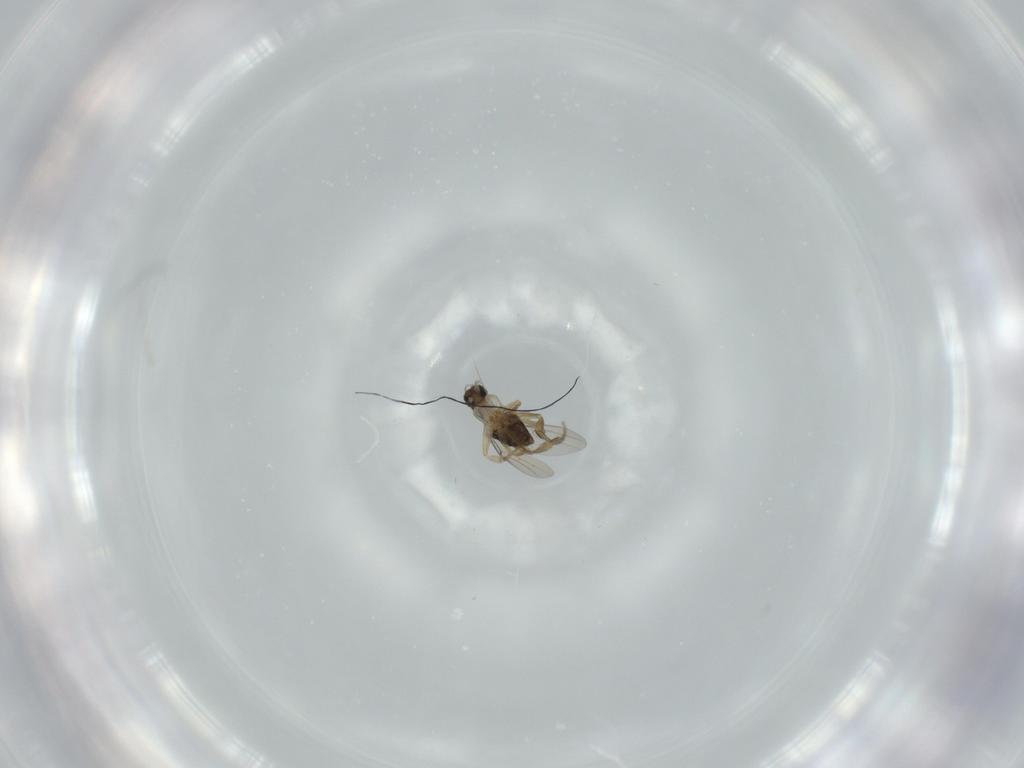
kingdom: Animalia
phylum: Arthropoda
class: Insecta
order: Diptera
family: Phoridae
